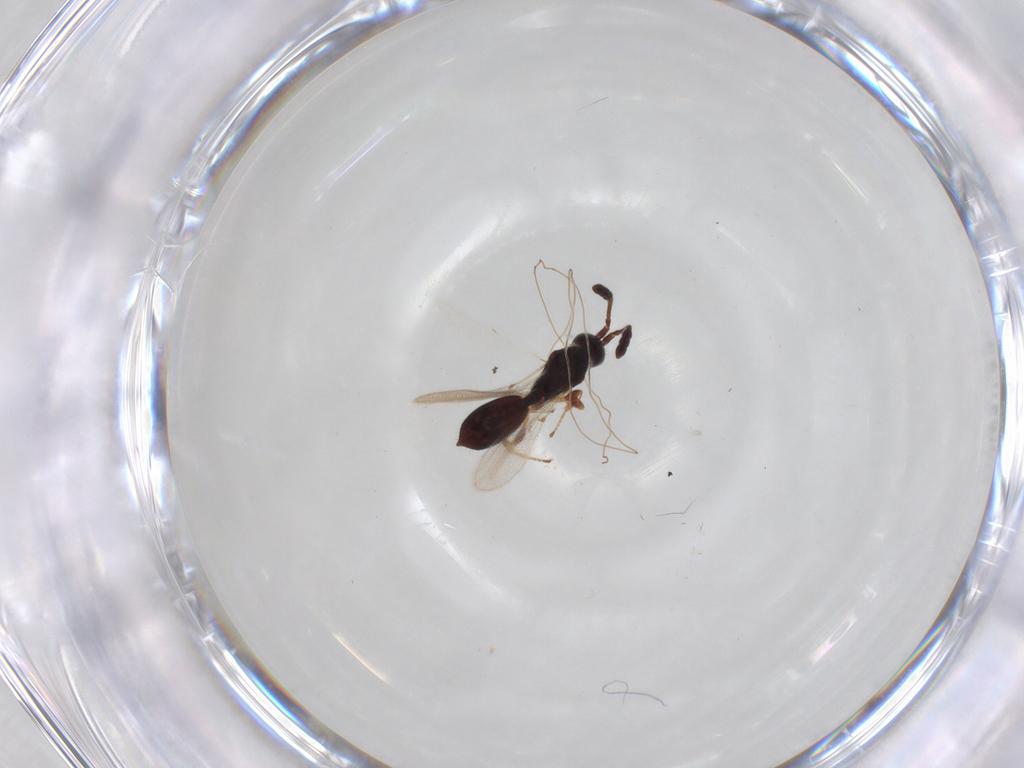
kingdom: Animalia
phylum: Arthropoda
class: Insecta
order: Hymenoptera
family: Diapriidae
